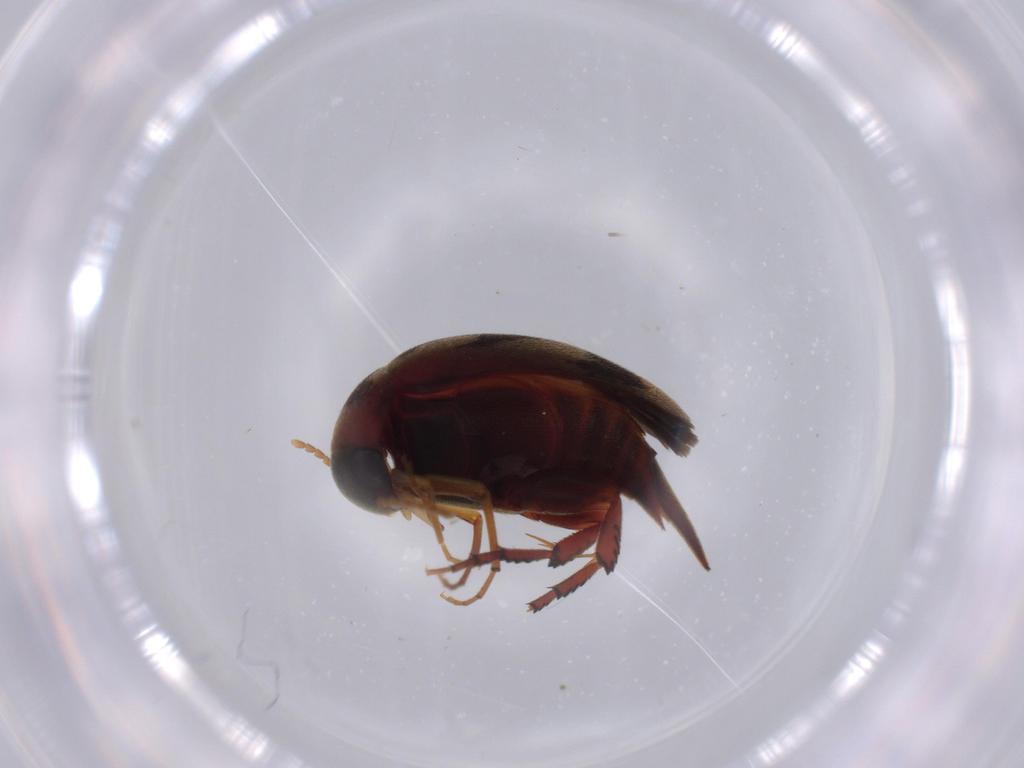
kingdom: Animalia
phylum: Arthropoda
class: Insecta
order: Coleoptera
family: Mordellidae
